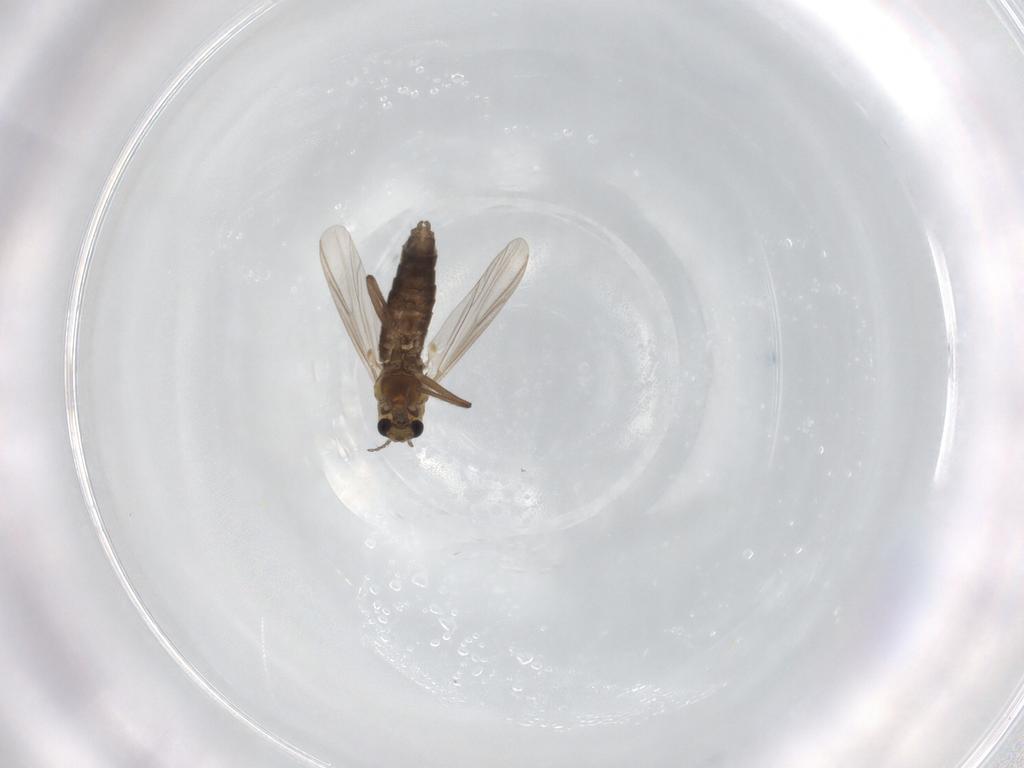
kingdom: Animalia
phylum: Arthropoda
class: Insecta
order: Diptera
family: Chironomidae
